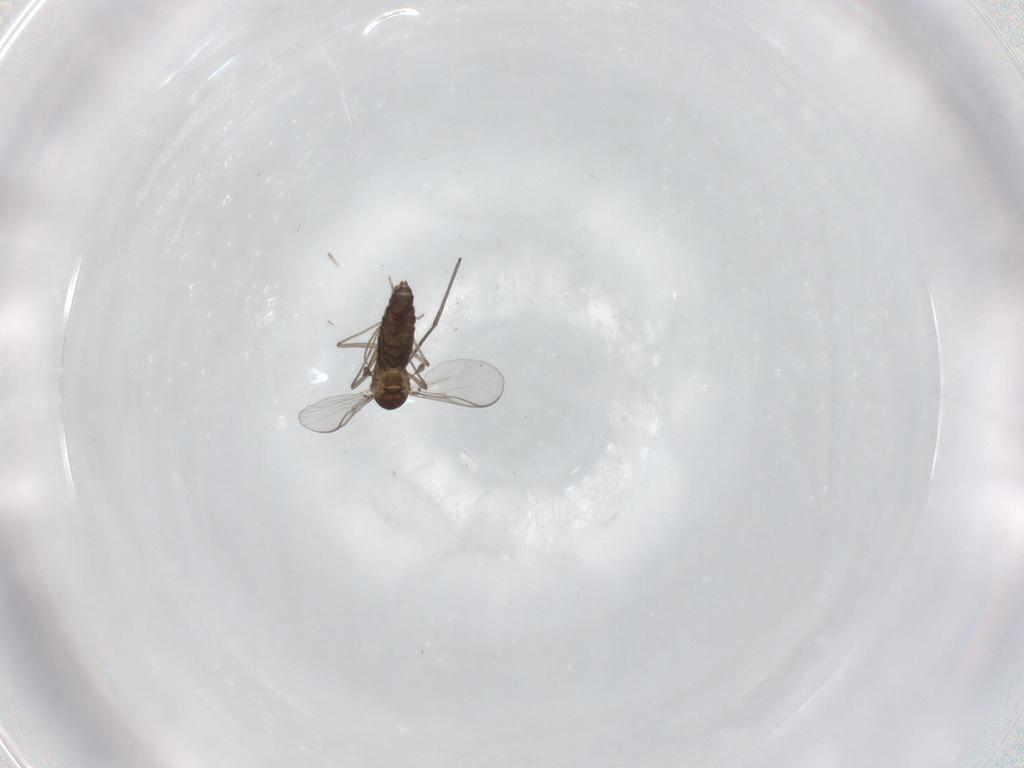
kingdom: Animalia
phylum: Arthropoda
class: Insecta
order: Diptera
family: Chironomidae
